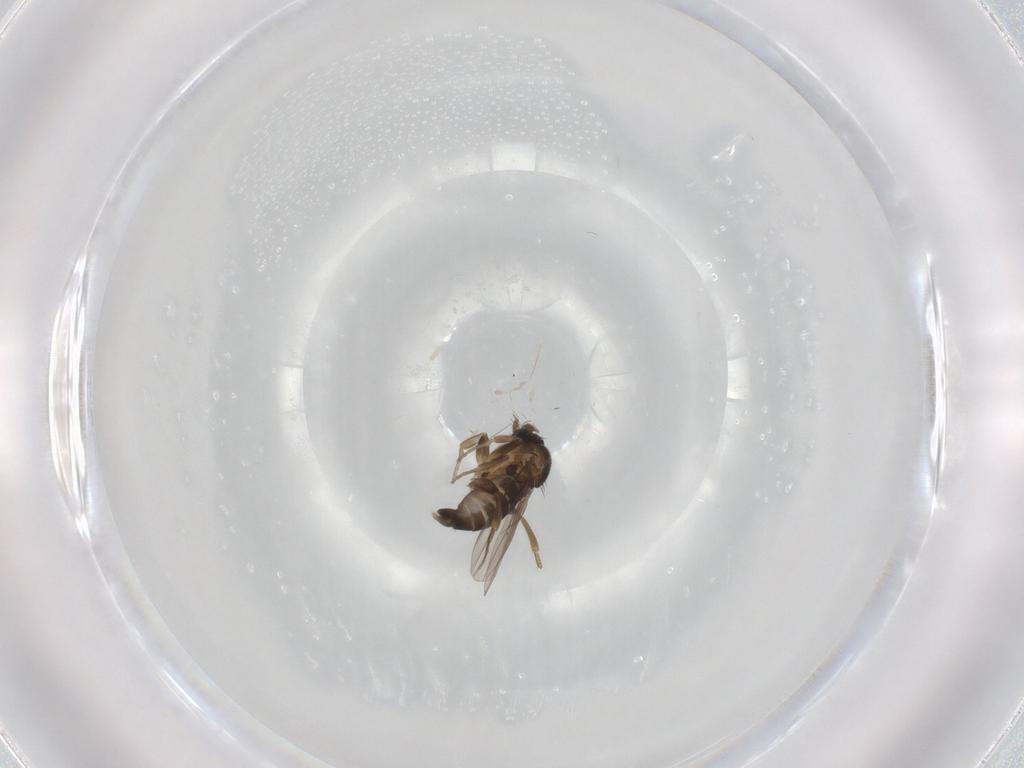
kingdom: Animalia
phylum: Arthropoda
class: Insecta
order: Diptera
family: Phoridae
